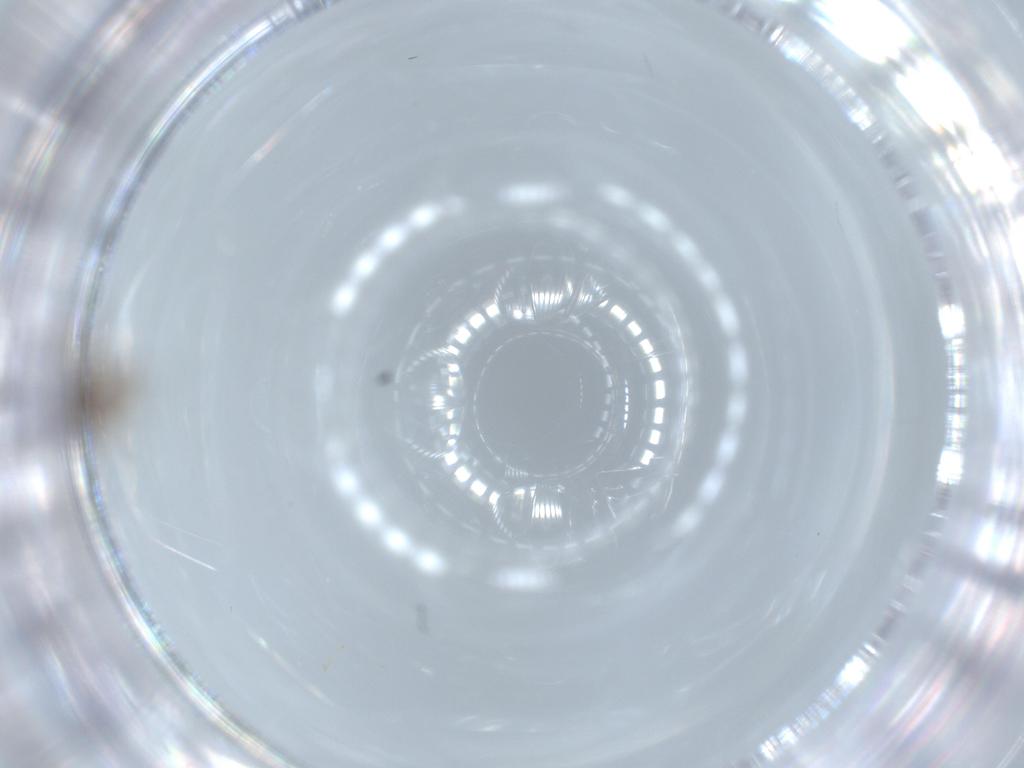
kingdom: Animalia
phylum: Arthropoda
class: Insecta
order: Hymenoptera
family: Diapriidae
